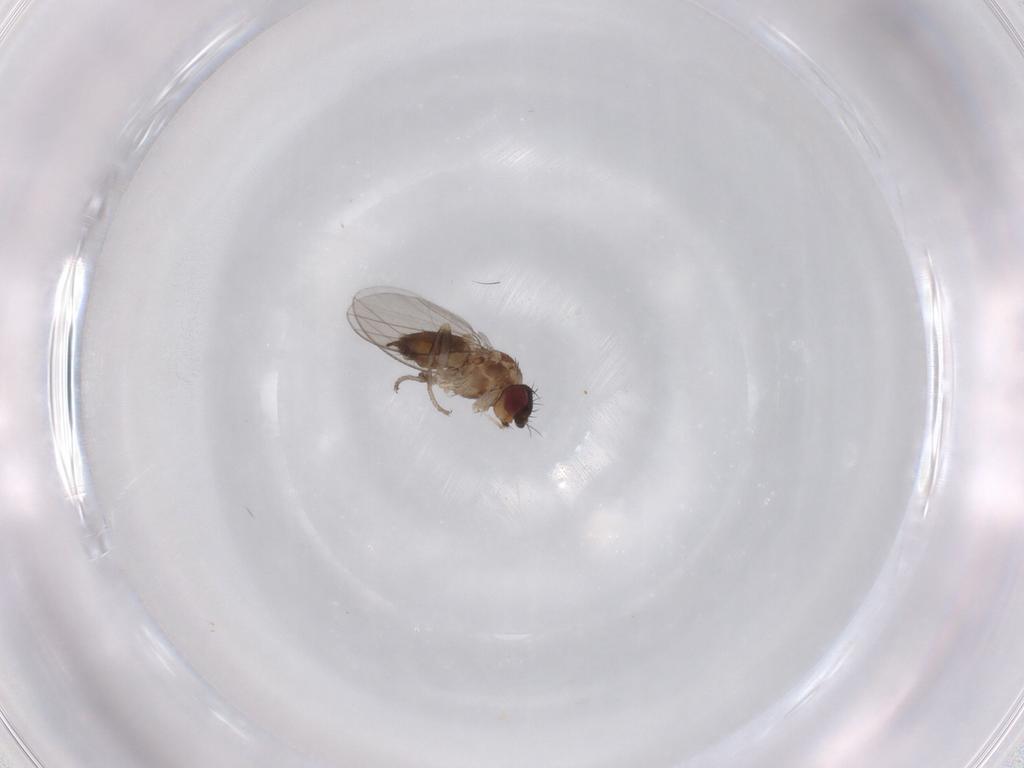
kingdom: Animalia
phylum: Arthropoda
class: Insecta
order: Diptera
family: Milichiidae
